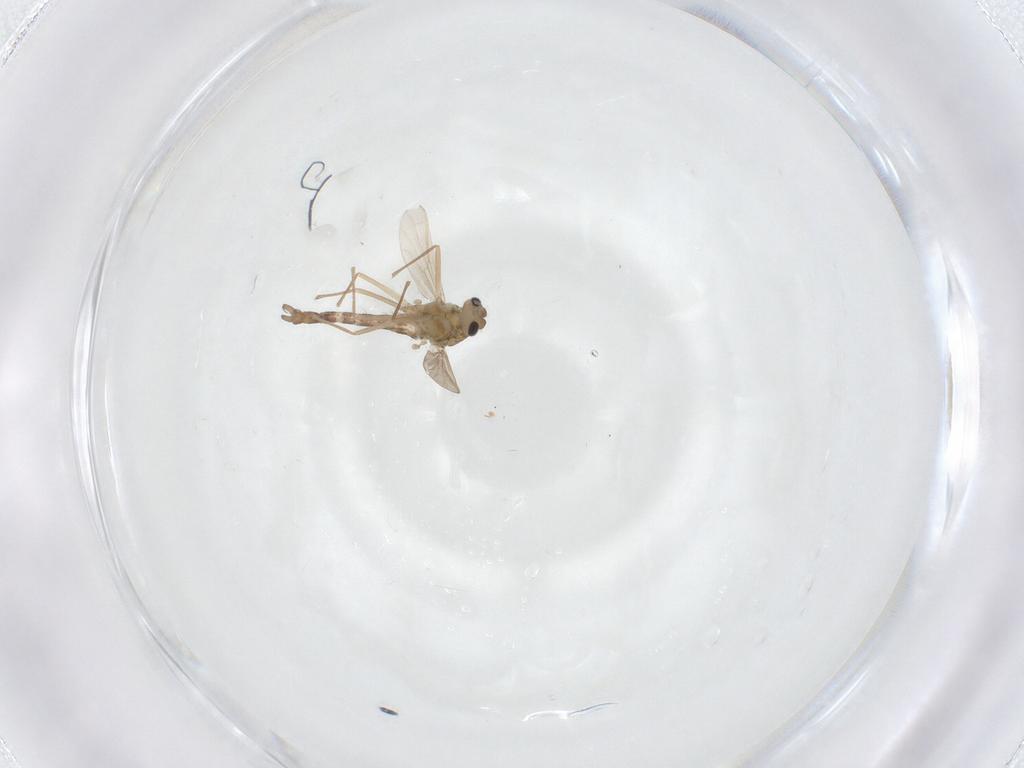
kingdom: Animalia
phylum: Arthropoda
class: Insecta
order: Diptera
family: Chironomidae
